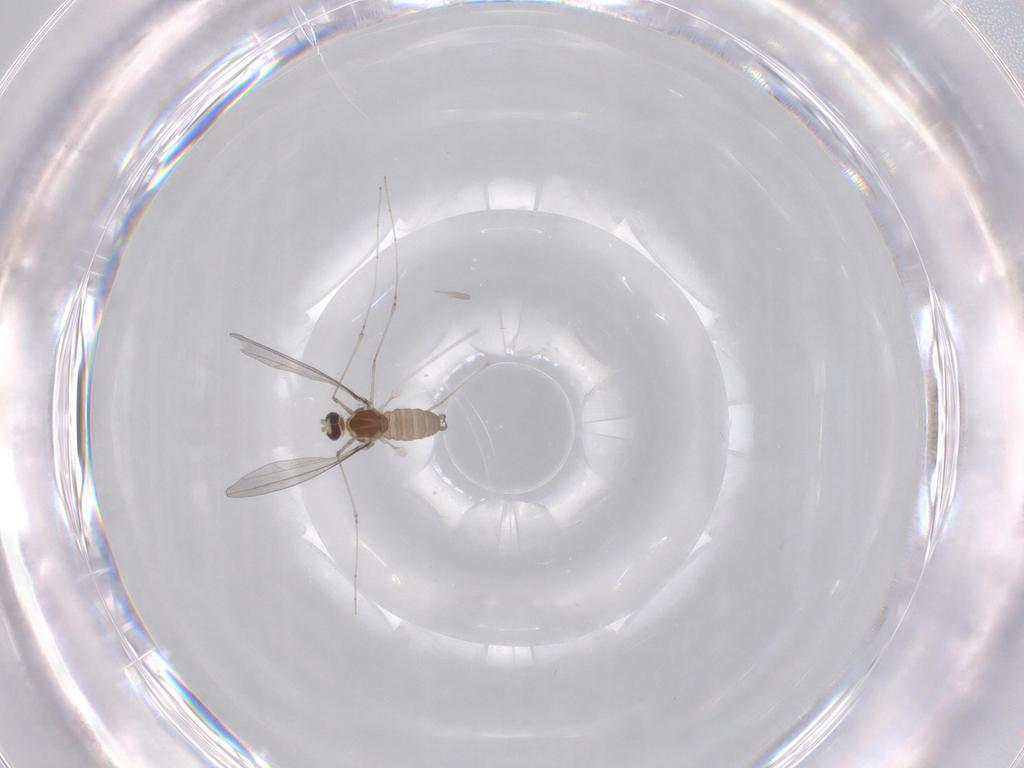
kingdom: Animalia
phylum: Arthropoda
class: Insecta
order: Diptera
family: Cecidomyiidae
